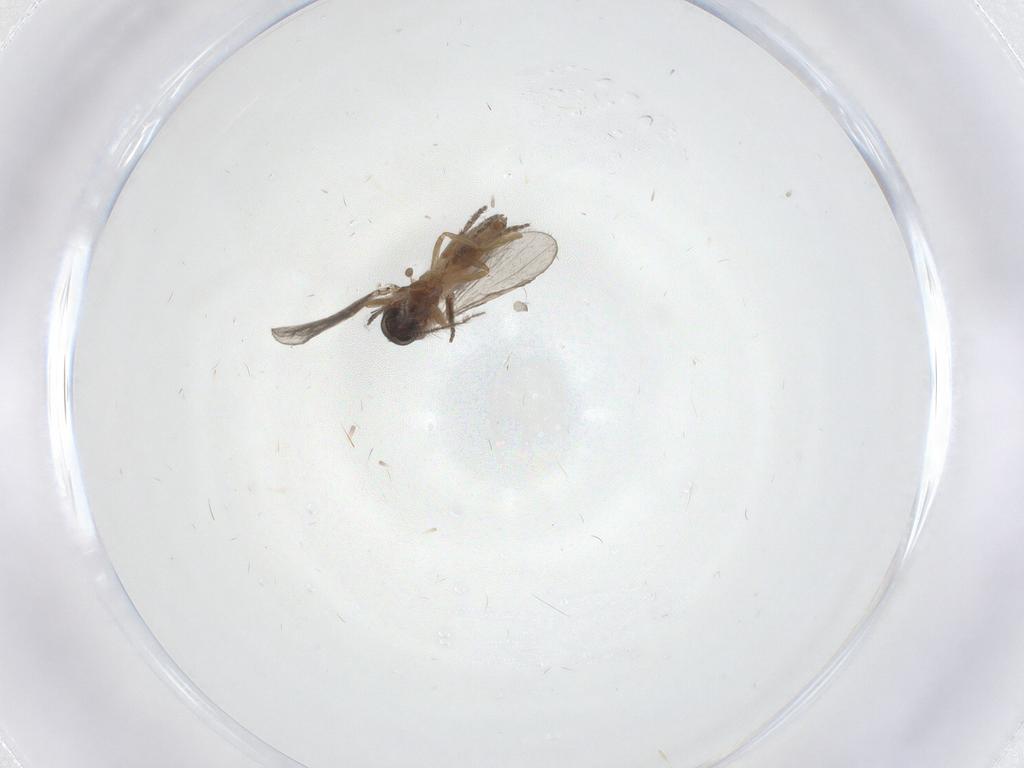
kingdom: Animalia
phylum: Arthropoda
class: Insecta
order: Diptera
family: Ceratopogonidae
